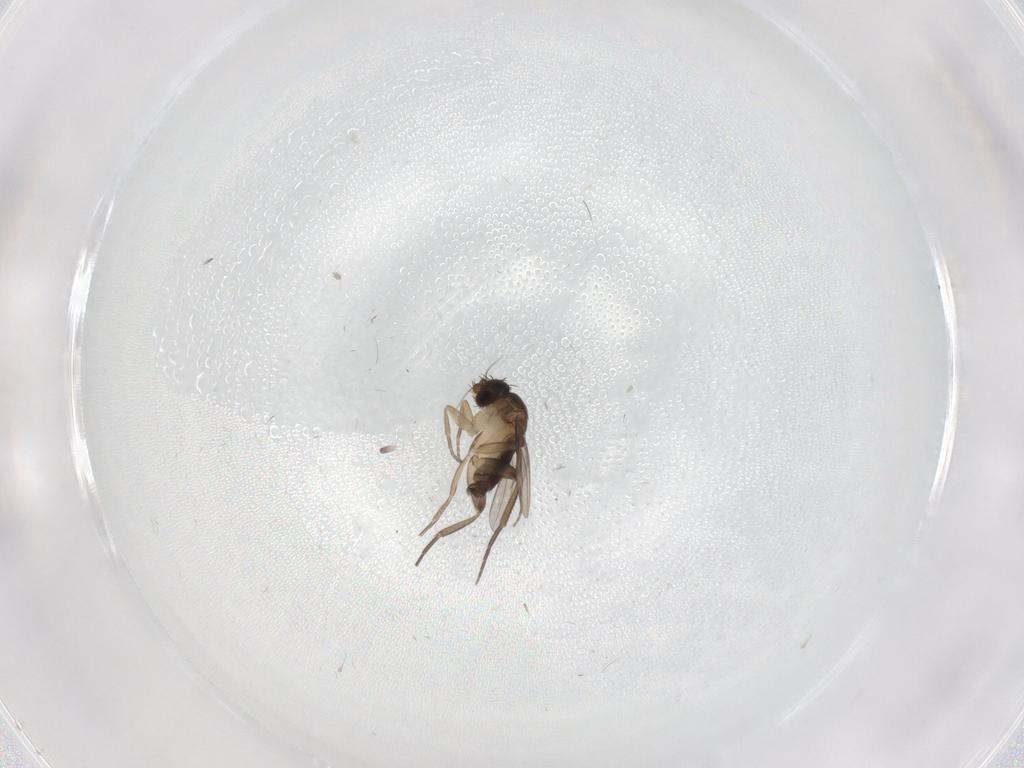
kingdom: Animalia
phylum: Arthropoda
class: Insecta
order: Diptera
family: Phoridae
